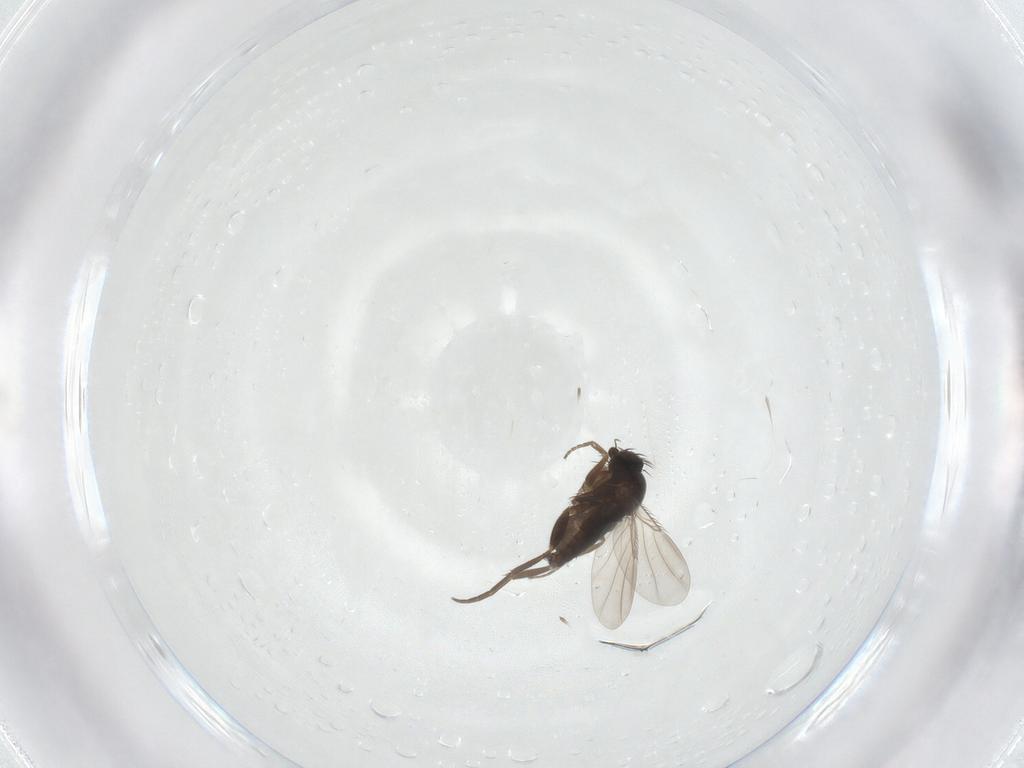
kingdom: Animalia
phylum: Arthropoda
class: Insecta
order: Diptera
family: Phoridae
